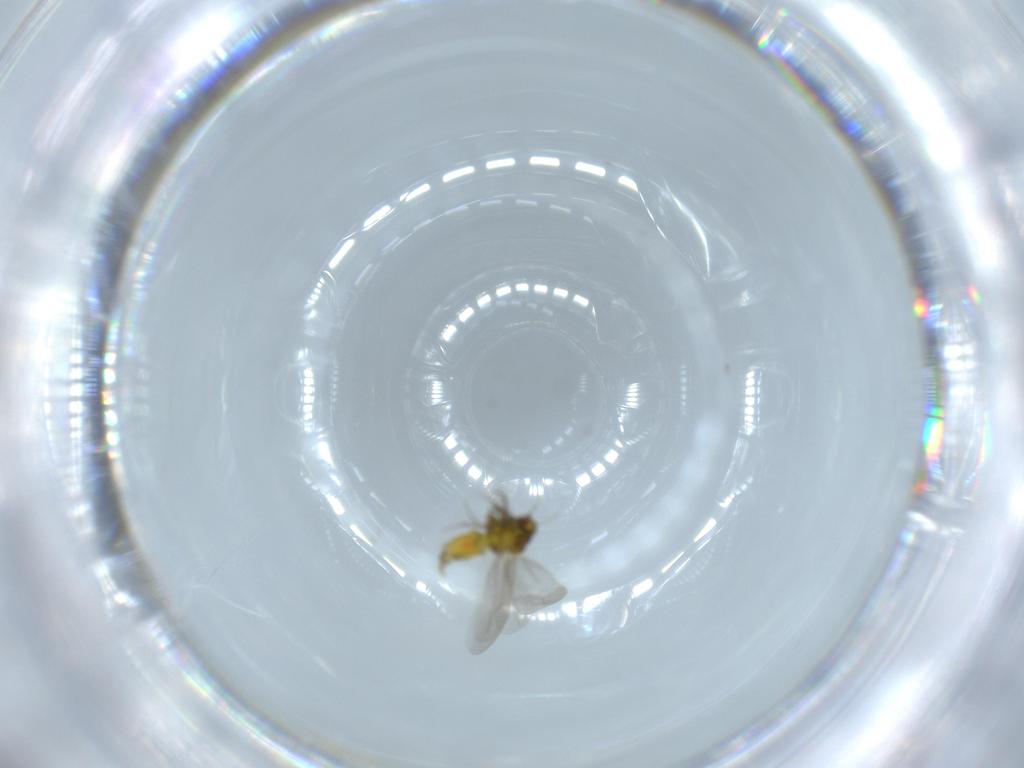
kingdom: Animalia
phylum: Arthropoda
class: Insecta
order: Hemiptera
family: Aleyrodidae
